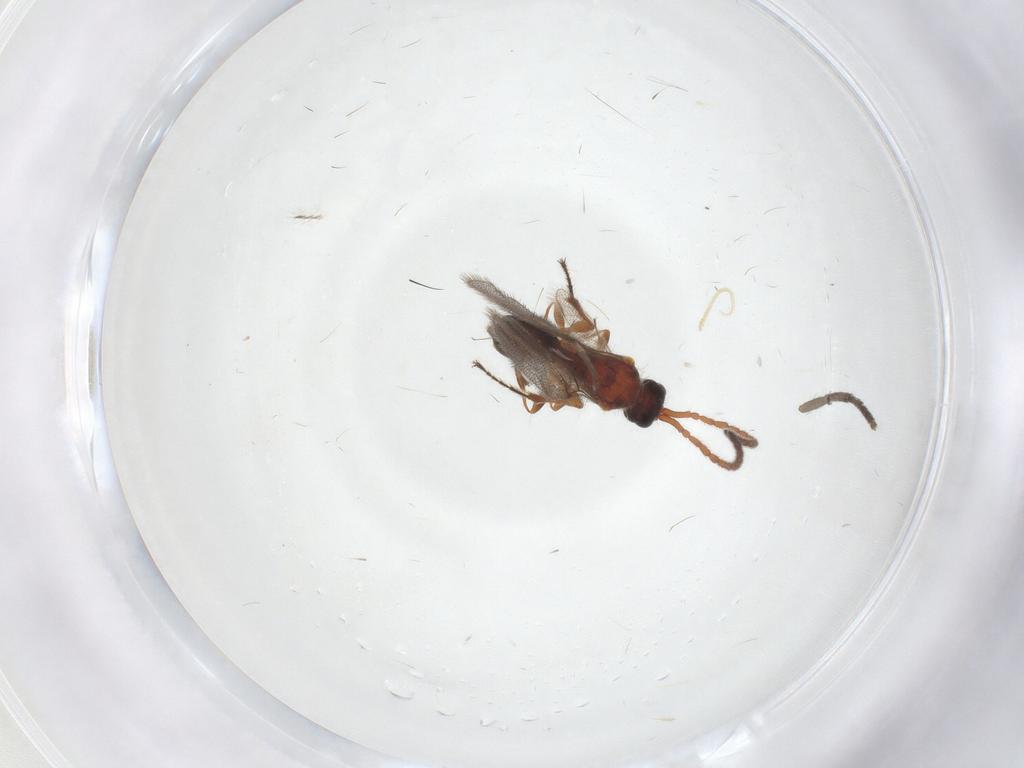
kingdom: Animalia
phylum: Arthropoda
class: Insecta
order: Hymenoptera
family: Diapriidae
